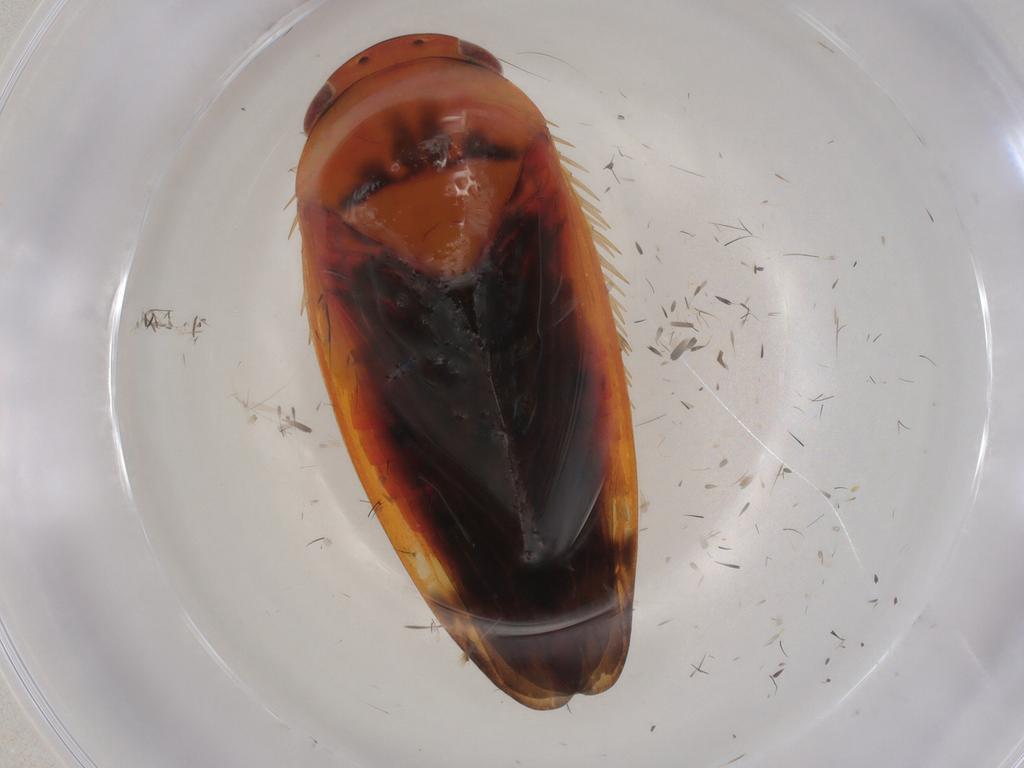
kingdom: Animalia
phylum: Arthropoda
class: Insecta
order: Hemiptera
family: Cicadellidae
